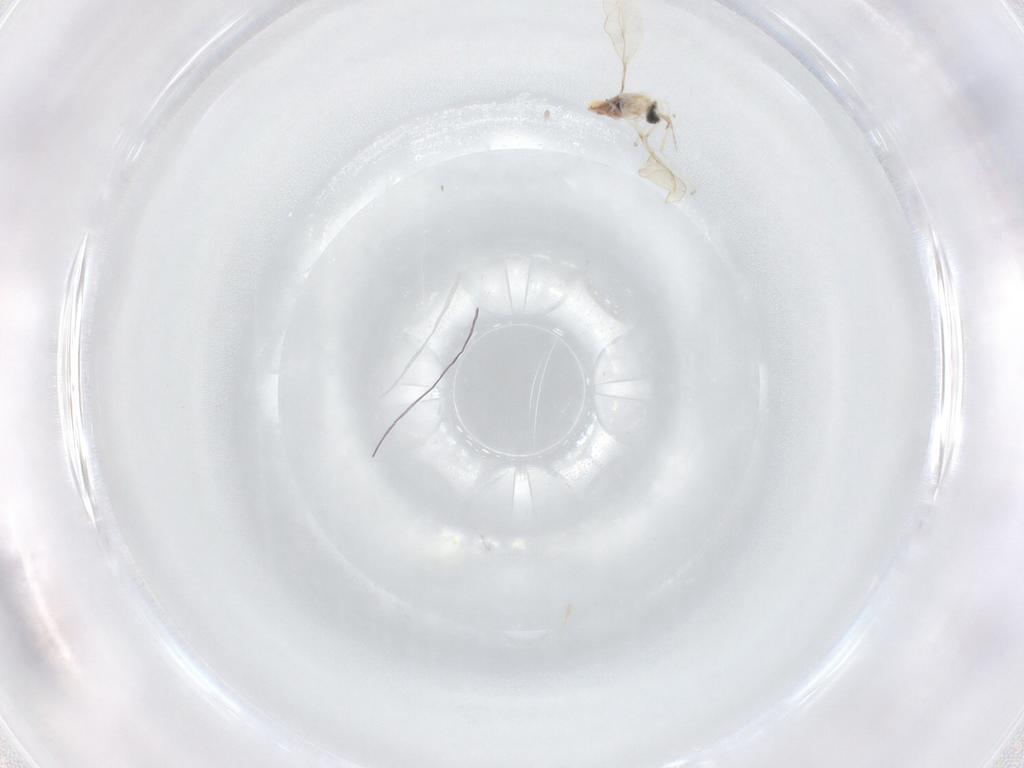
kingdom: Animalia
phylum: Arthropoda
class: Insecta
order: Diptera
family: Cecidomyiidae
